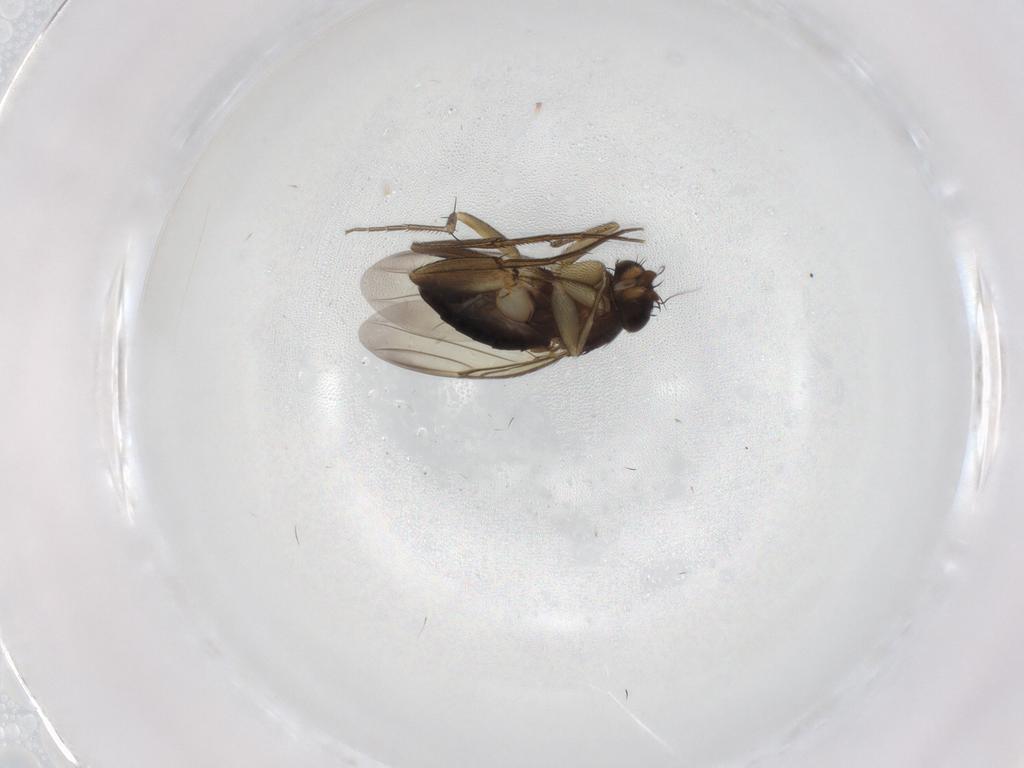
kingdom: Animalia
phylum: Arthropoda
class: Insecta
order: Diptera
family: Phoridae
